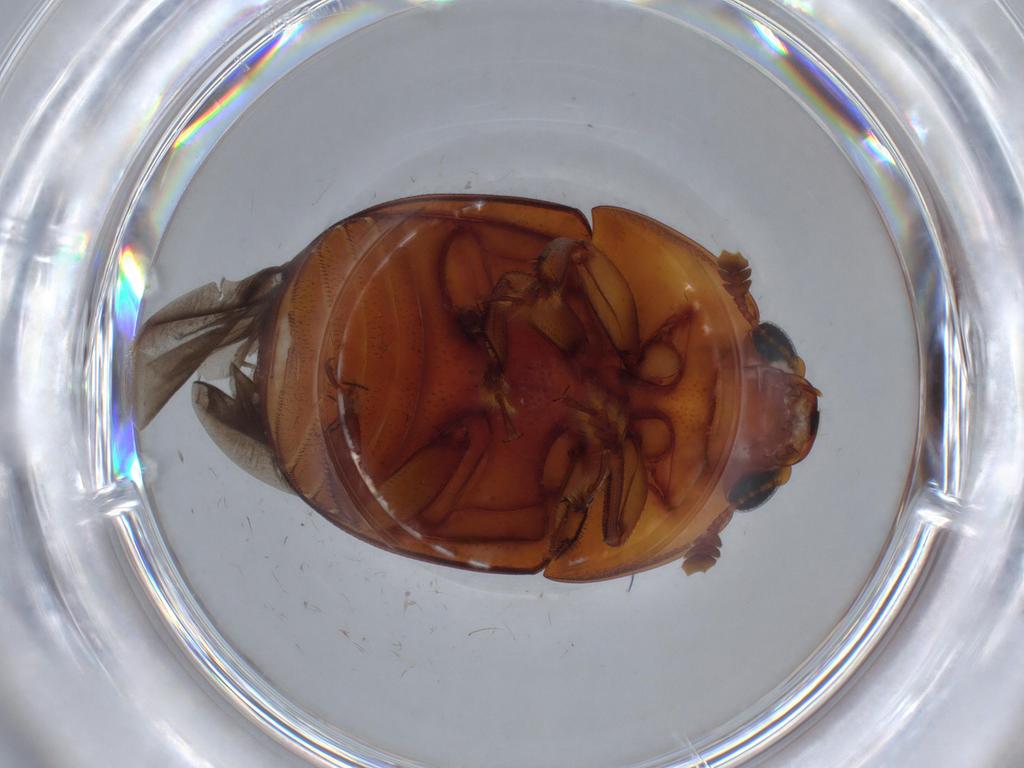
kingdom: Animalia
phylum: Arthropoda
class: Insecta
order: Coleoptera
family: Nitidulidae
